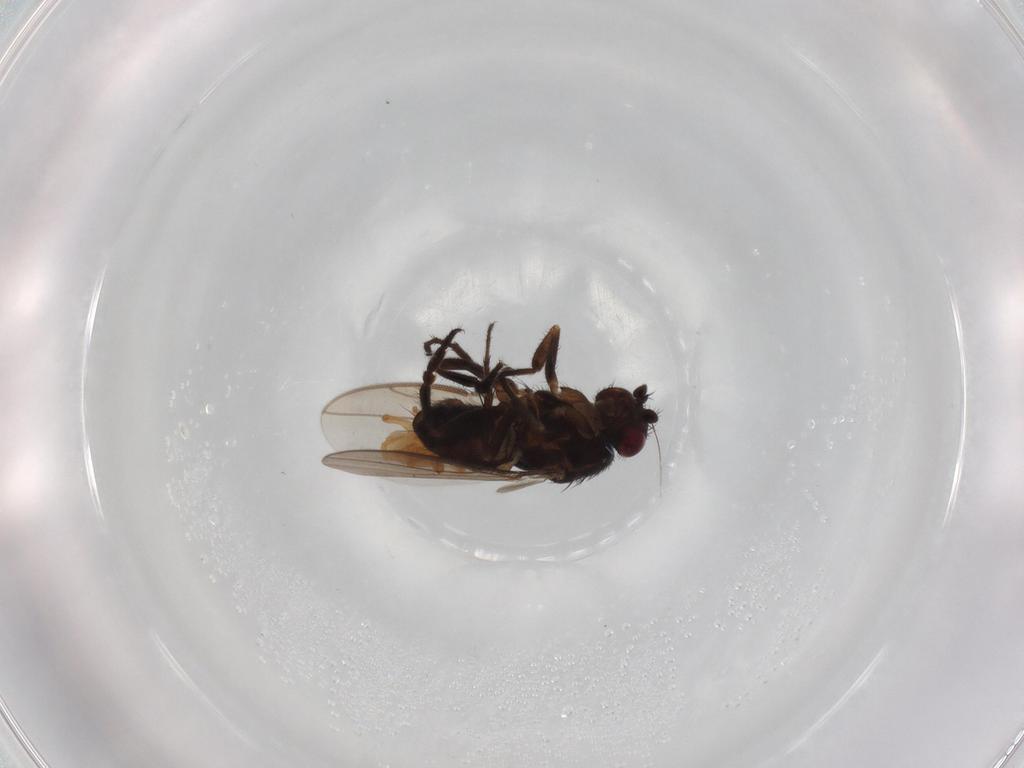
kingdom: Animalia
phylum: Arthropoda
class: Insecta
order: Diptera
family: Sphaeroceridae
